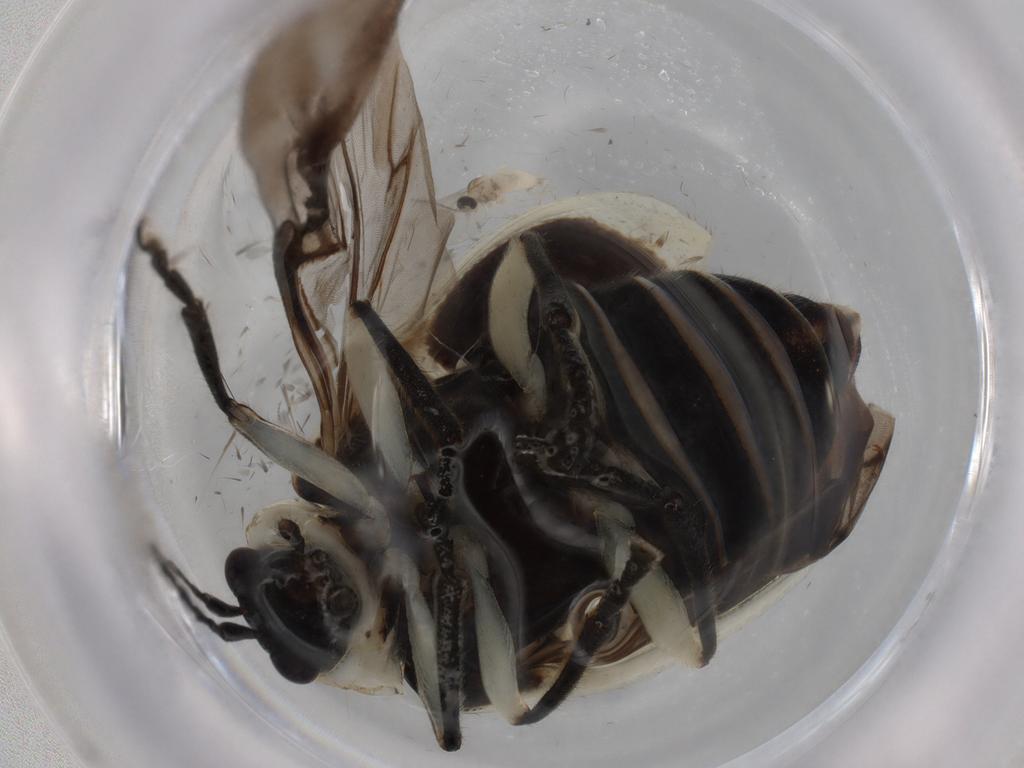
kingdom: Animalia
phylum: Arthropoda
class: Insecta
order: Coleoptera
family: Chrysomelidae
